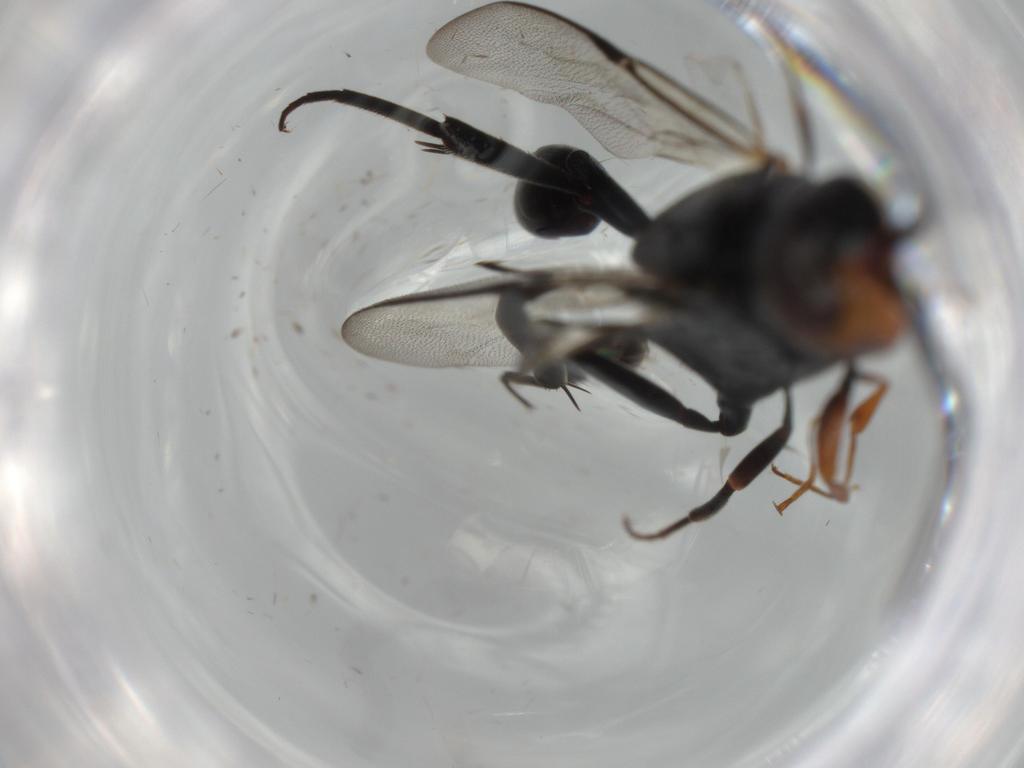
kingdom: Animalia
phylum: Arthropoda
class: Insecta
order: Hymenoptera
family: Evaniidae
